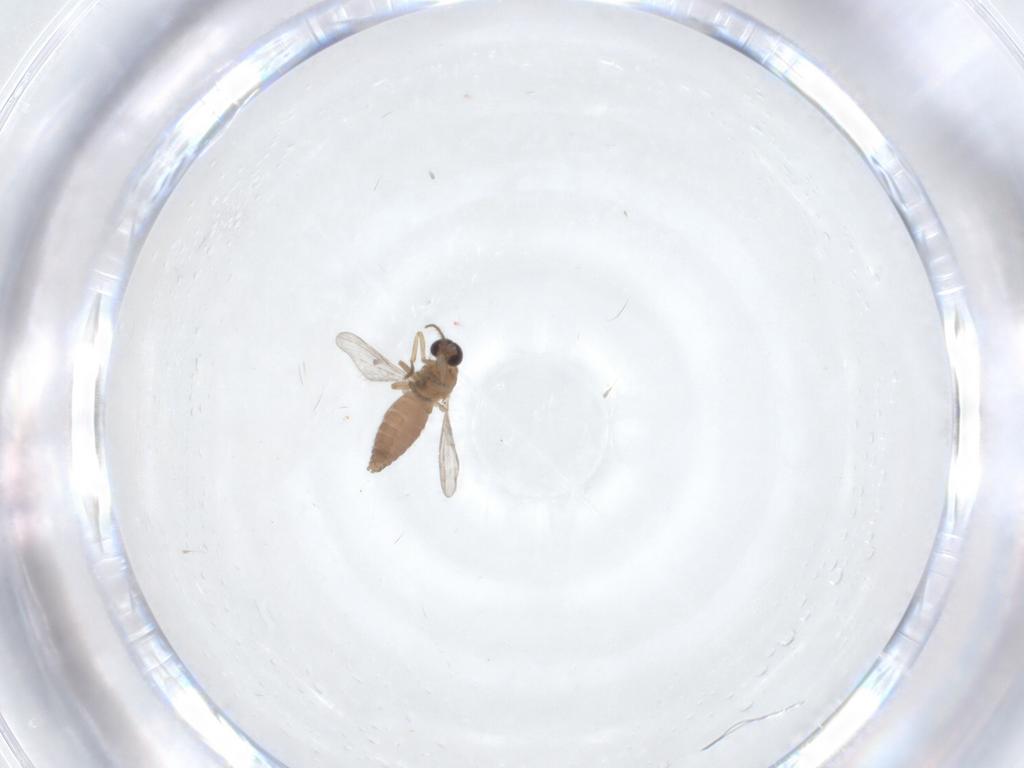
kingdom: Animalia
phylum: Arthropoda
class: Insecta
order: Diptera
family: Ceratopogonidae
